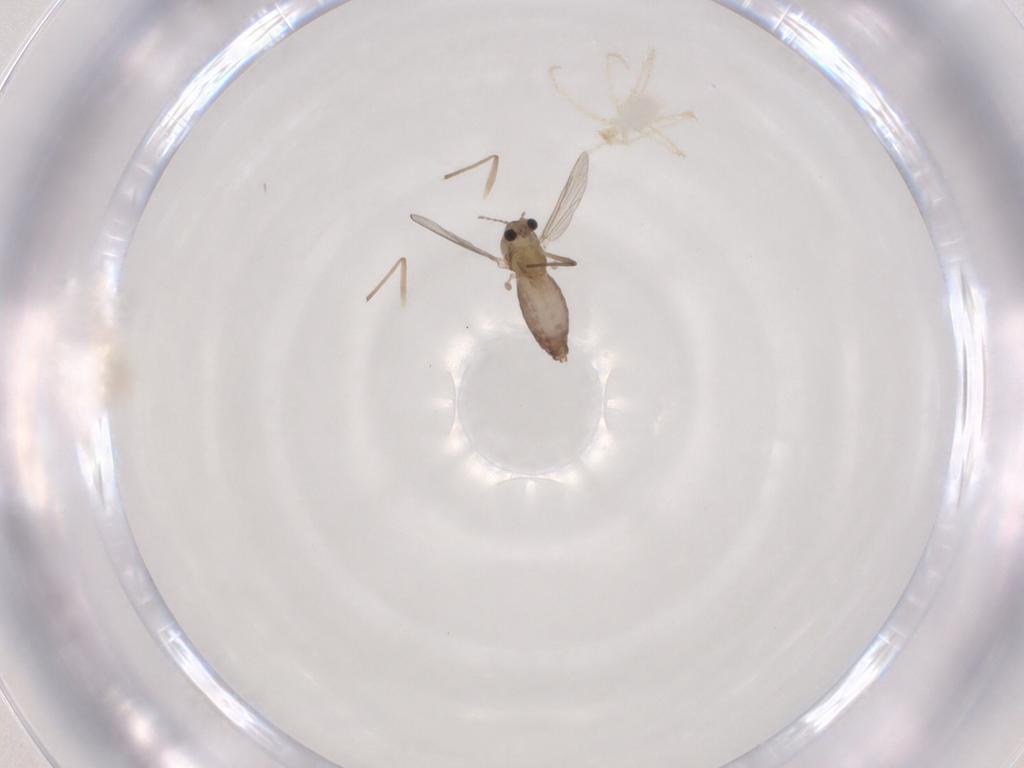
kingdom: Animalia
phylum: Arthropoda
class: Insecta
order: Diptera
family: Chironomidae
